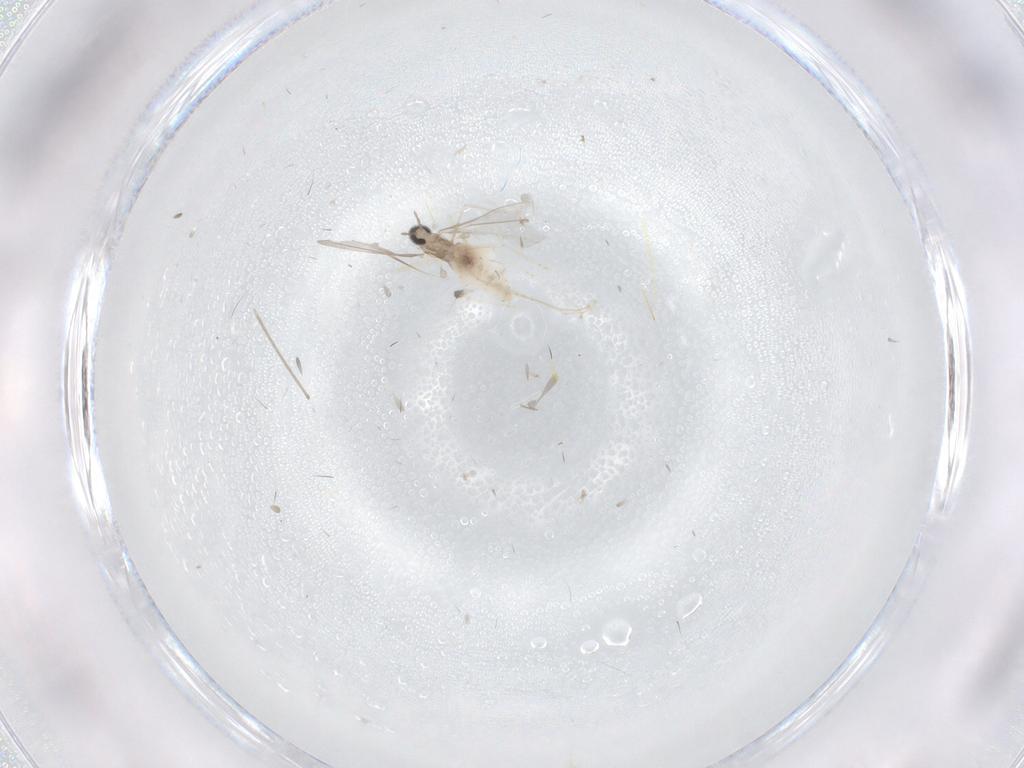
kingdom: Animalia
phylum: Arthropoda
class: Insecta
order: Diptera
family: Psychodidae
